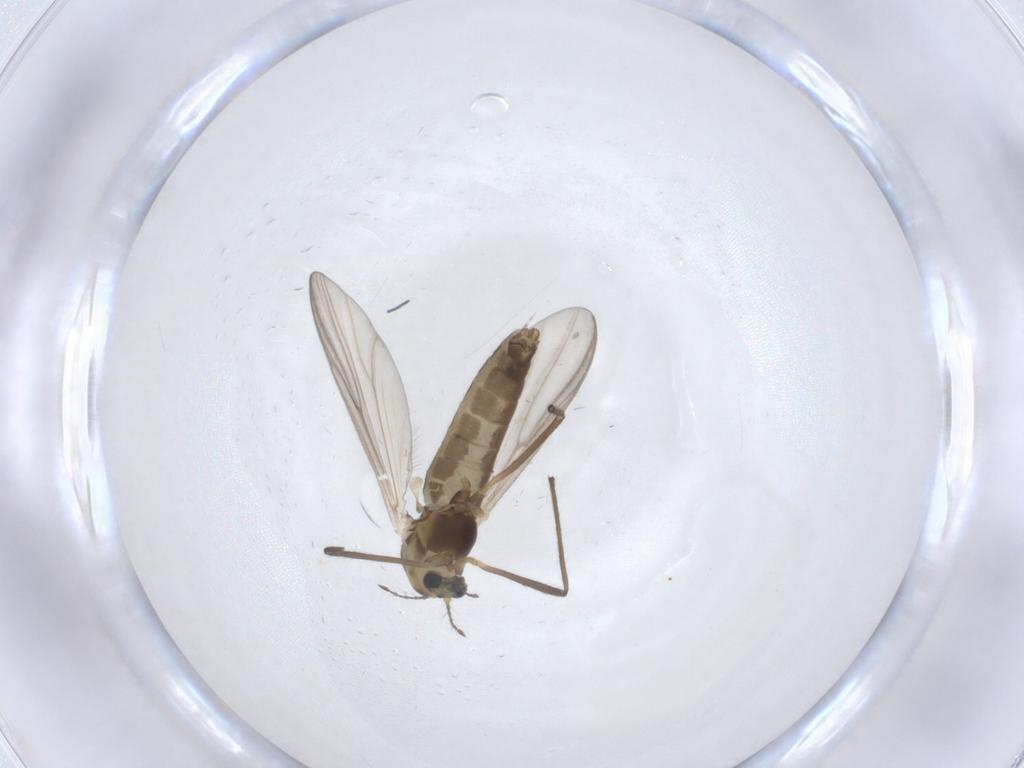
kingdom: Animalia
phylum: Arthropoda
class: Insecta
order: Diptera
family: Chironomidae
